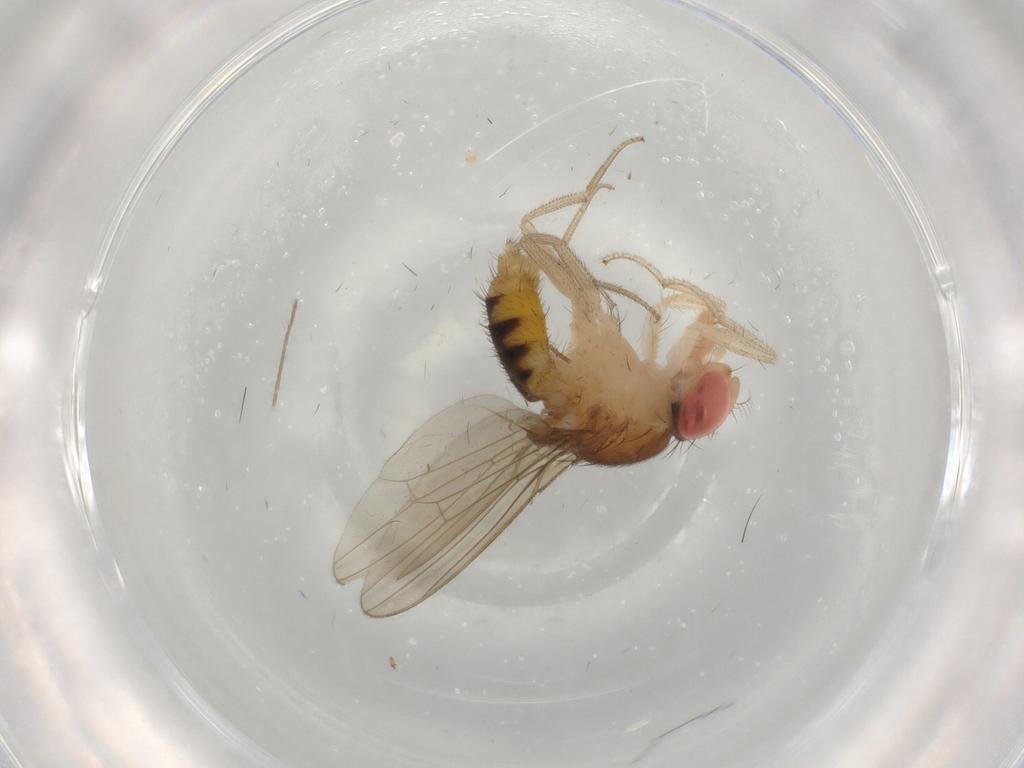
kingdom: Animalia
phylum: Arthropoda
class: Insecta
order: Diptera
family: Drosophilidae
